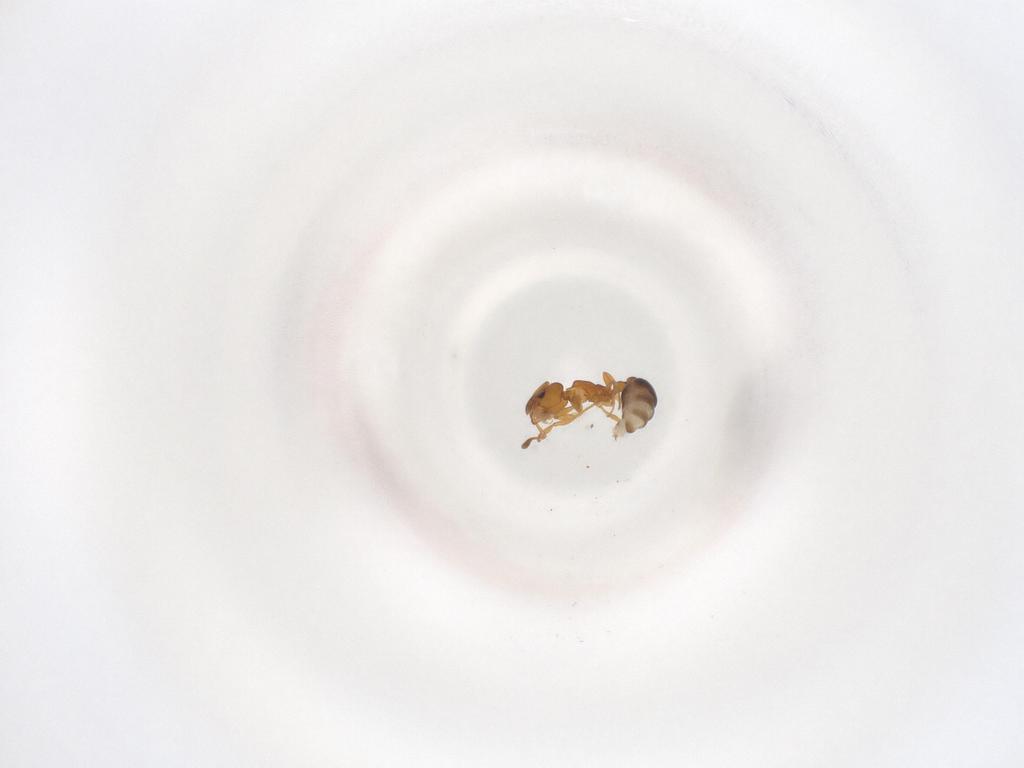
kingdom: Animalia
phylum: Arthropoda
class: Insecta
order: Hymenoptera
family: Formicidae
